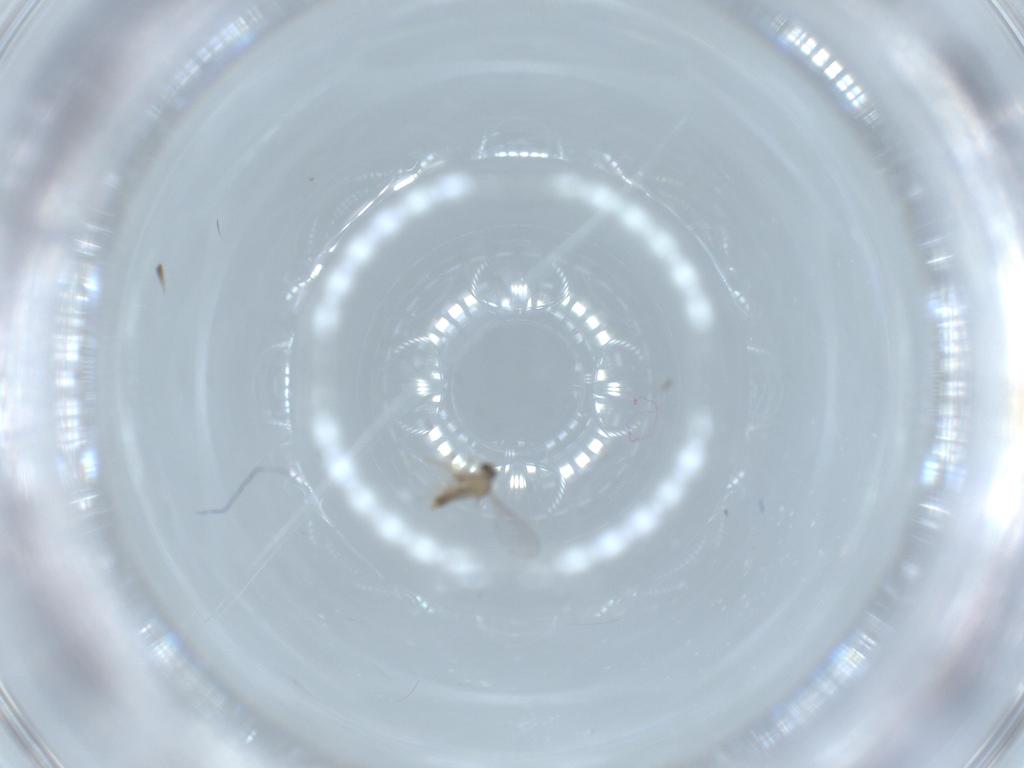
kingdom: Animalia
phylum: Arthropoda
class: Insecta
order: Diptera
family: Cecidomyiidae
